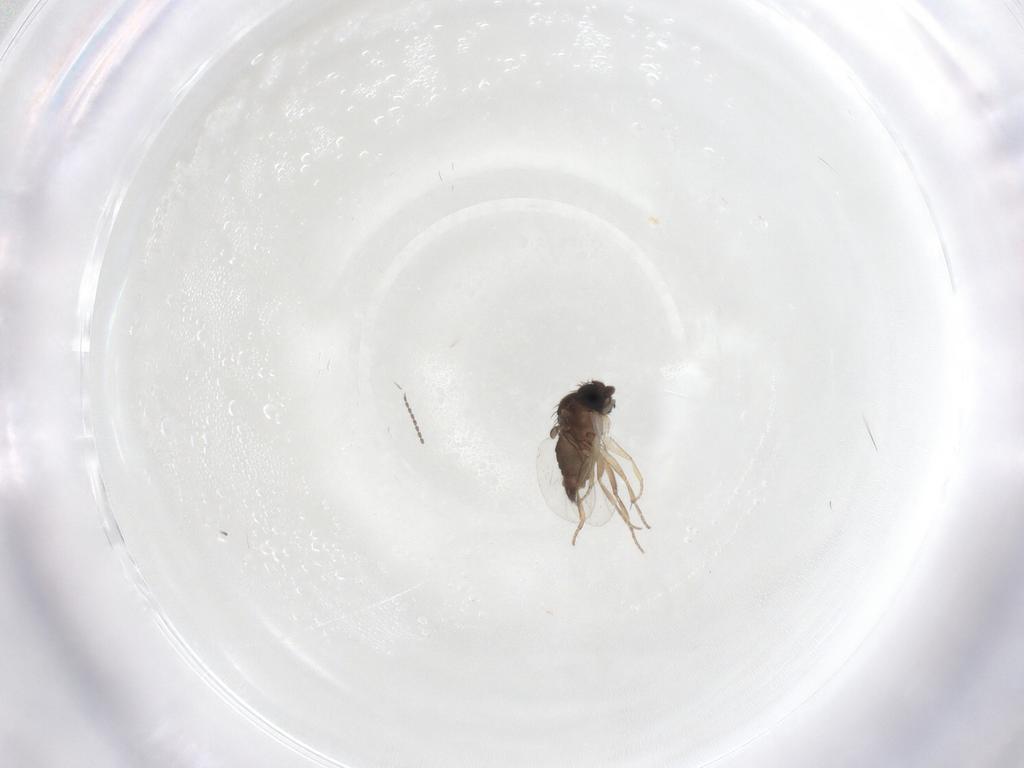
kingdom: Animalia
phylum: Arthropoda
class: Insecta
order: Diptera
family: Phoridae
